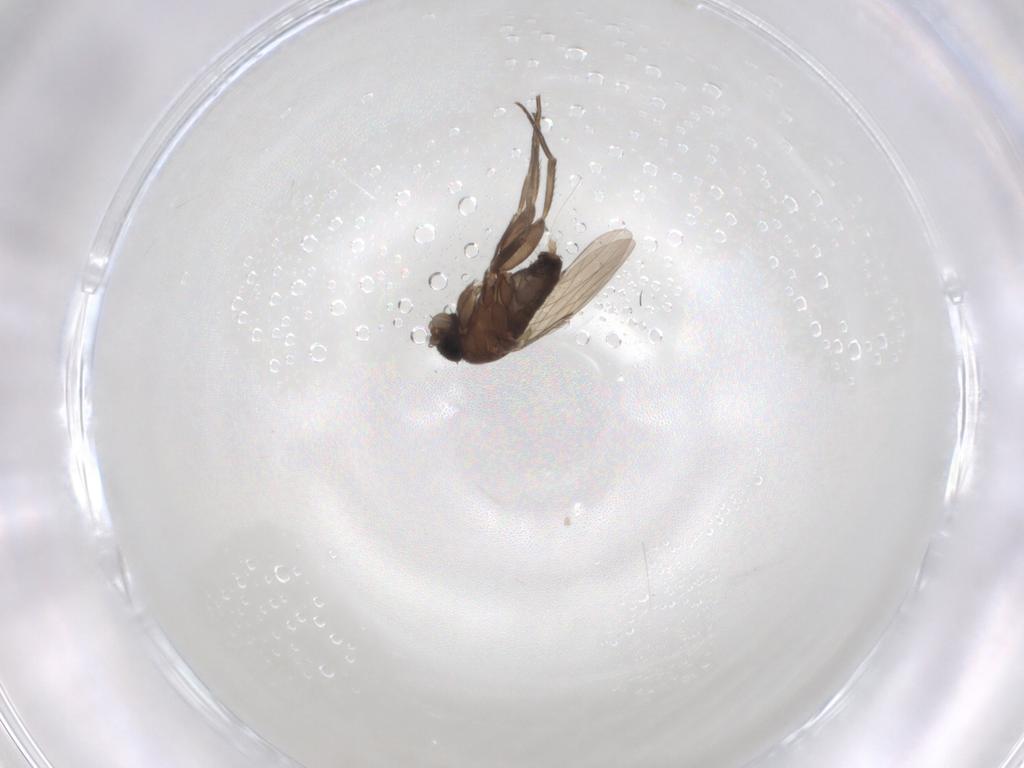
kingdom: Animalia
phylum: Arthropoda
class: Insecta
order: Diptera
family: Phoridae
